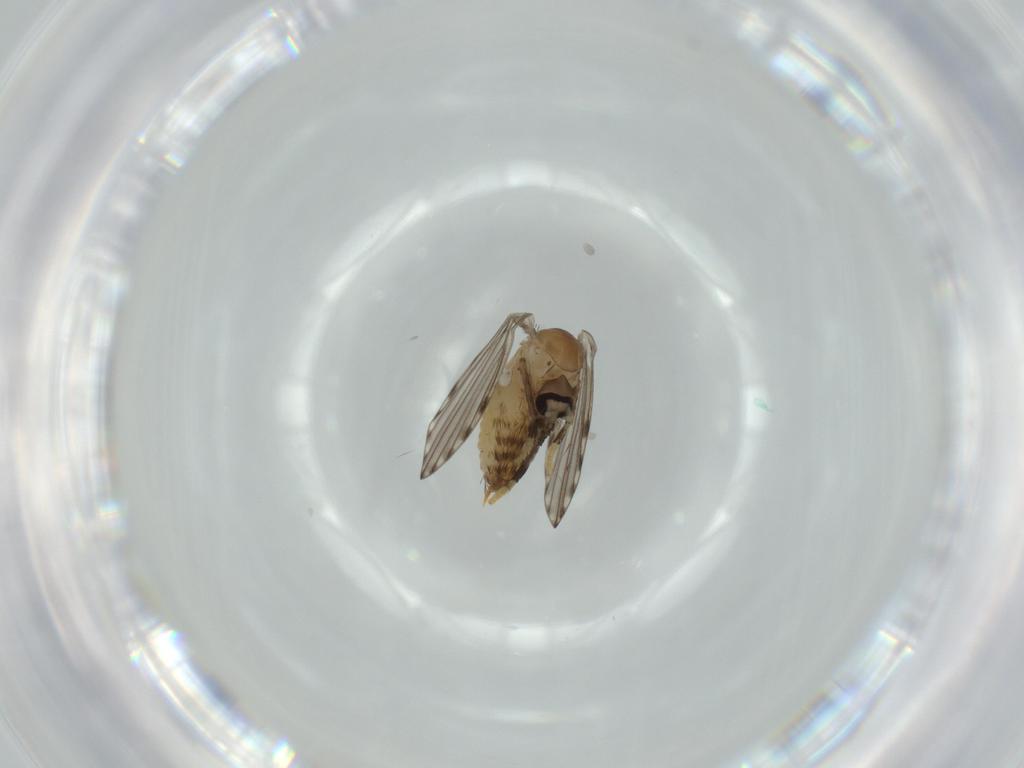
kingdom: Animalia
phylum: Arthropoda
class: Insecta
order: Diptera
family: Psychodidae
